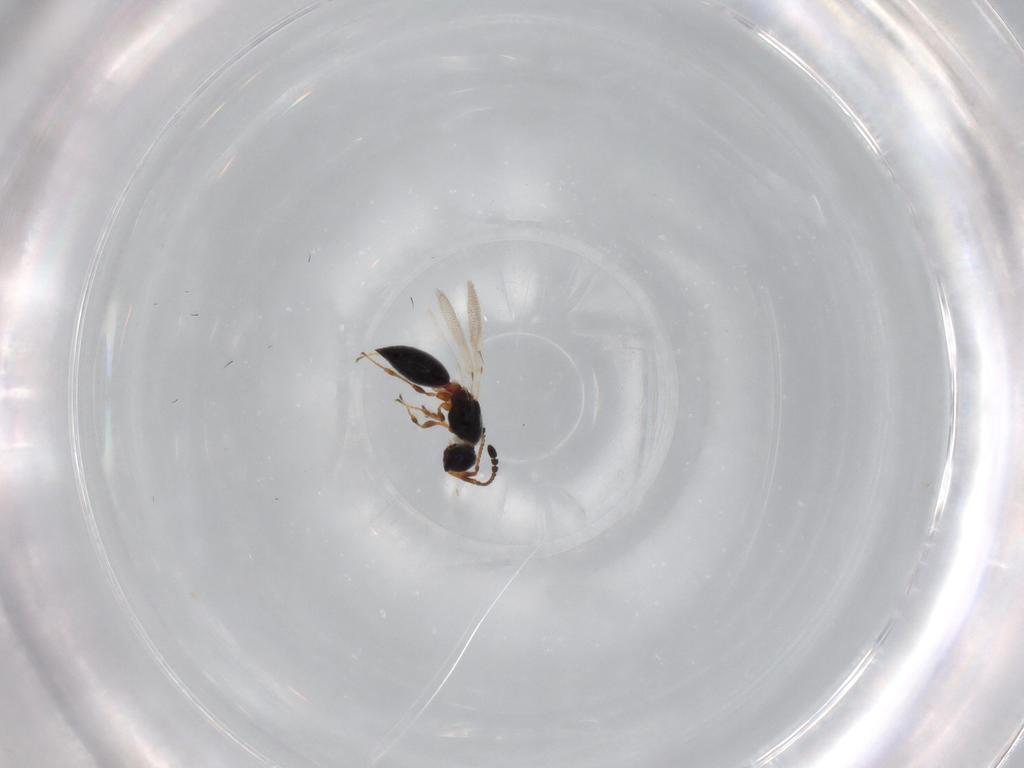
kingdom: Animalia
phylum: Arthropoda
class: Insecta
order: Hymenoptera
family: Diapriidae
